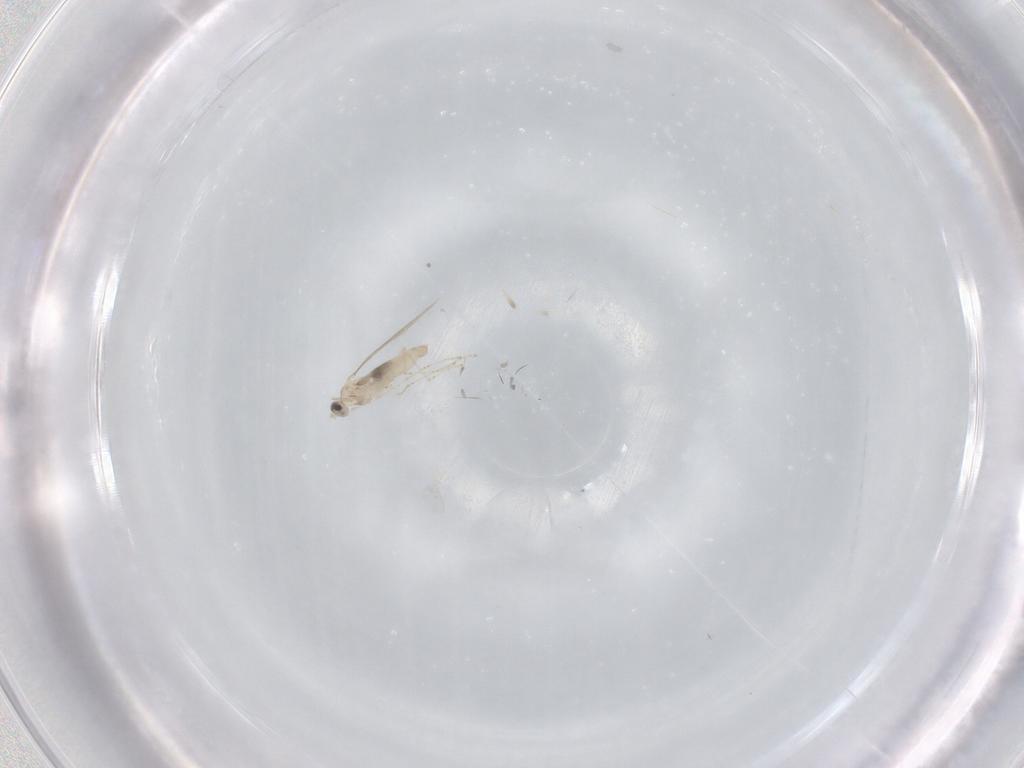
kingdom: Animalia
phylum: Arthropoda
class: Insecta
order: Diptera
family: Cecidomyiidae
